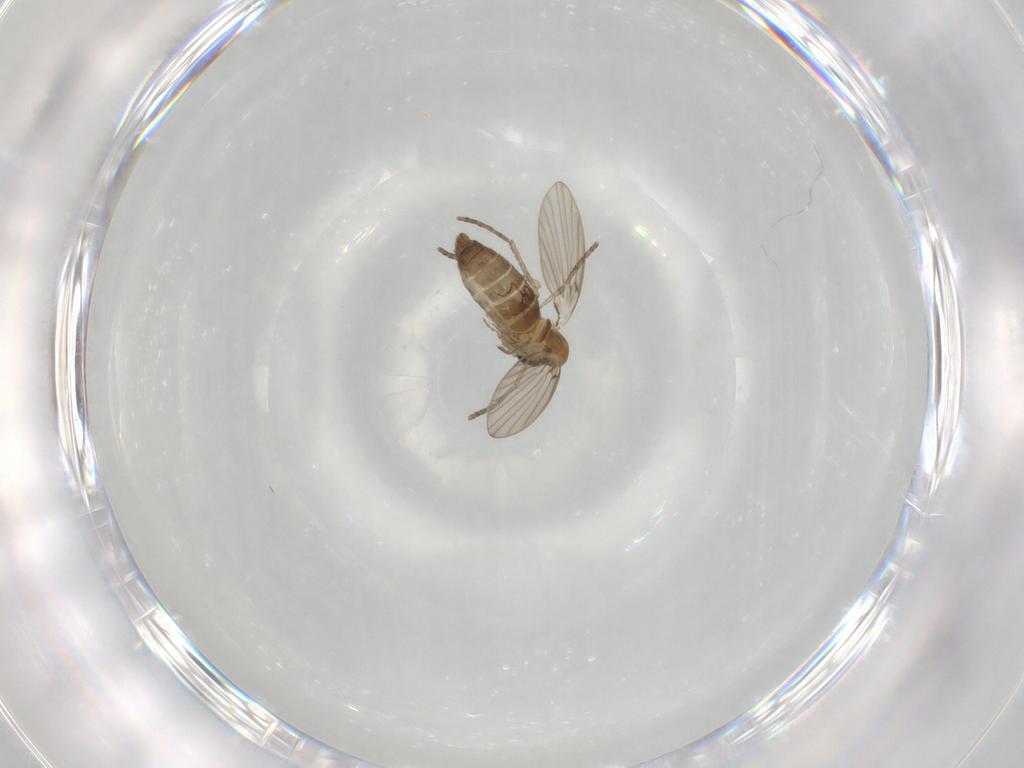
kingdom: Animalia
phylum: Arthropoda
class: Insecta
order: Diptera
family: Psychodidae
